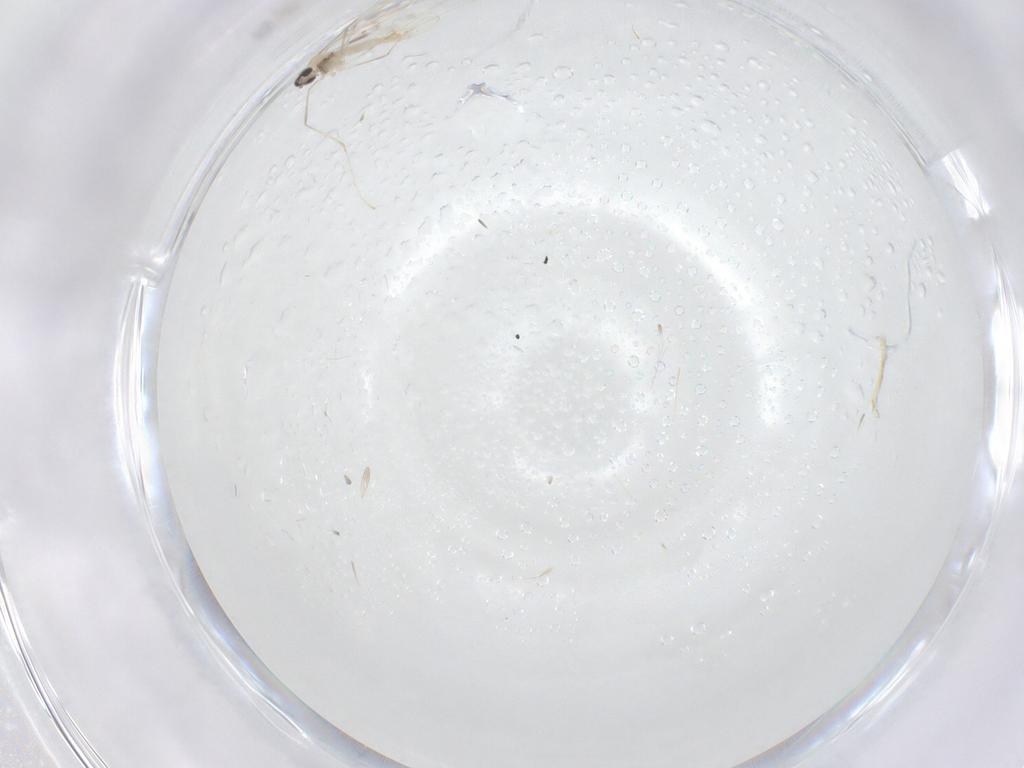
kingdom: Animalia
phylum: Arthropoda
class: Insecta
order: Diptera
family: Cecidomyiidae
